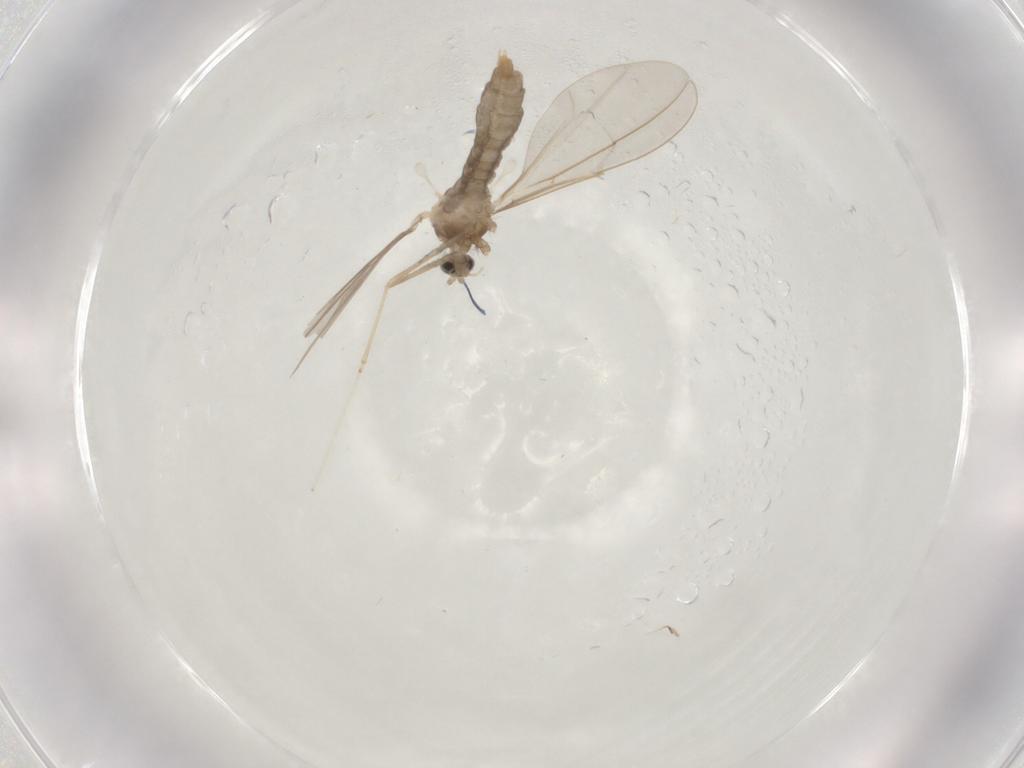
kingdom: Animalia
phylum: Arthropoda
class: Insecta
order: Diptera
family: Cecidomyiidae
